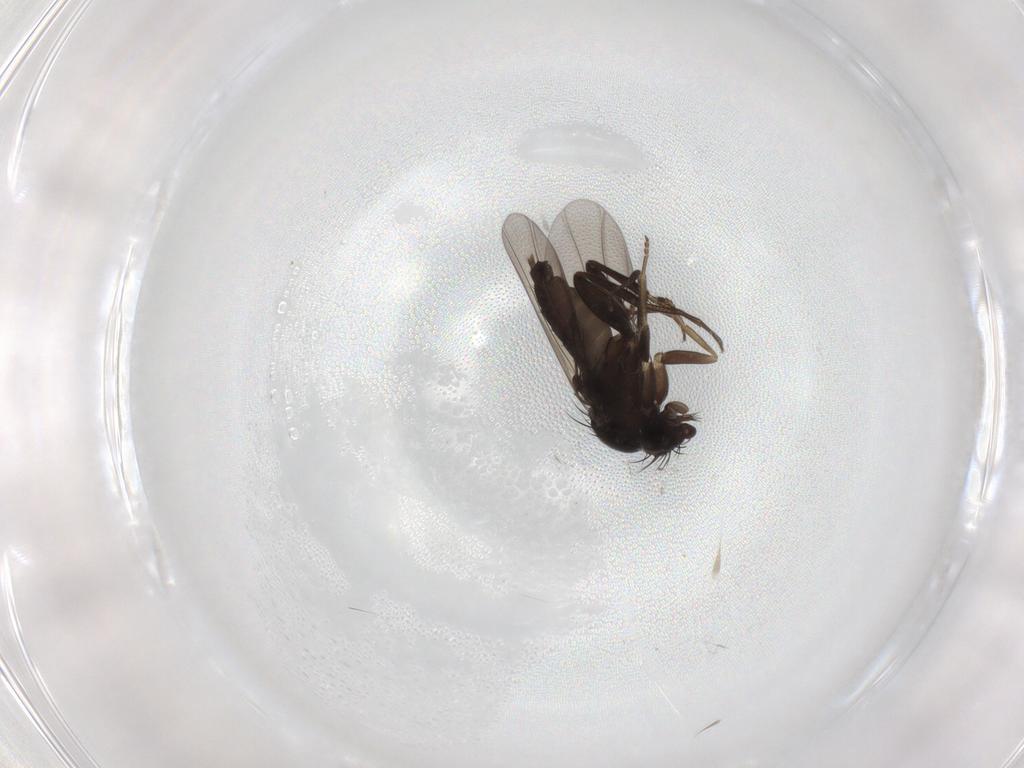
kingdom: Animalia
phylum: Arthropoda
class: Insecta
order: Diptera
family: Phoridae
